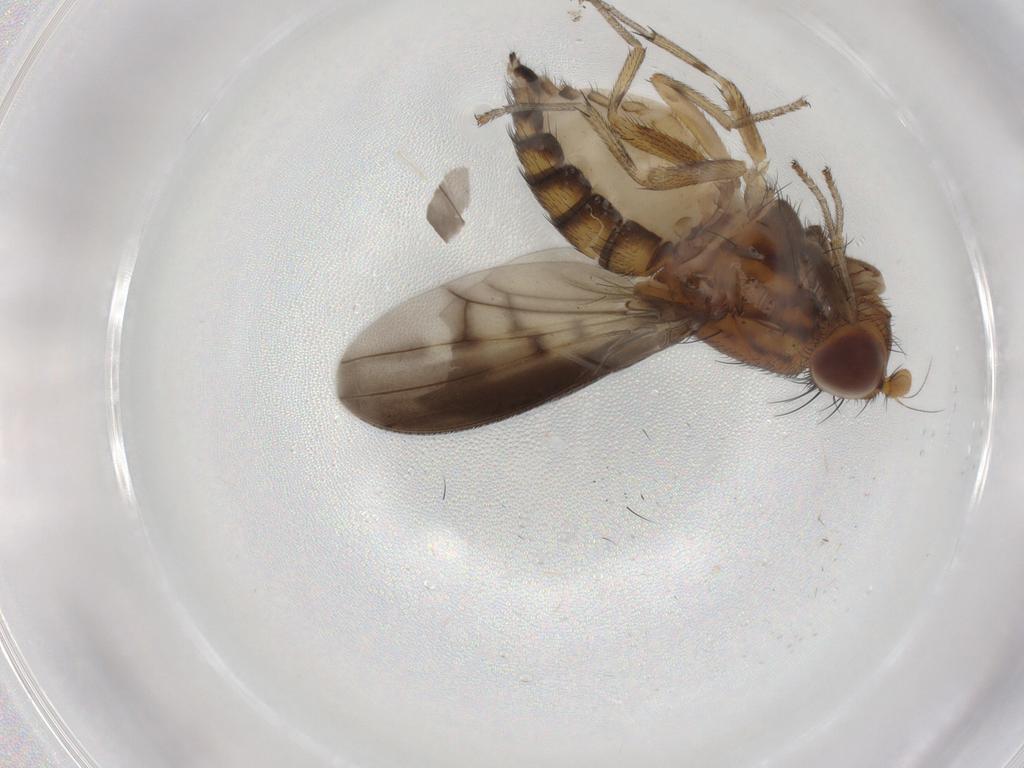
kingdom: Animalia
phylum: Arthropoda
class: Insecta
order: Diptera
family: Lauxaniidae
